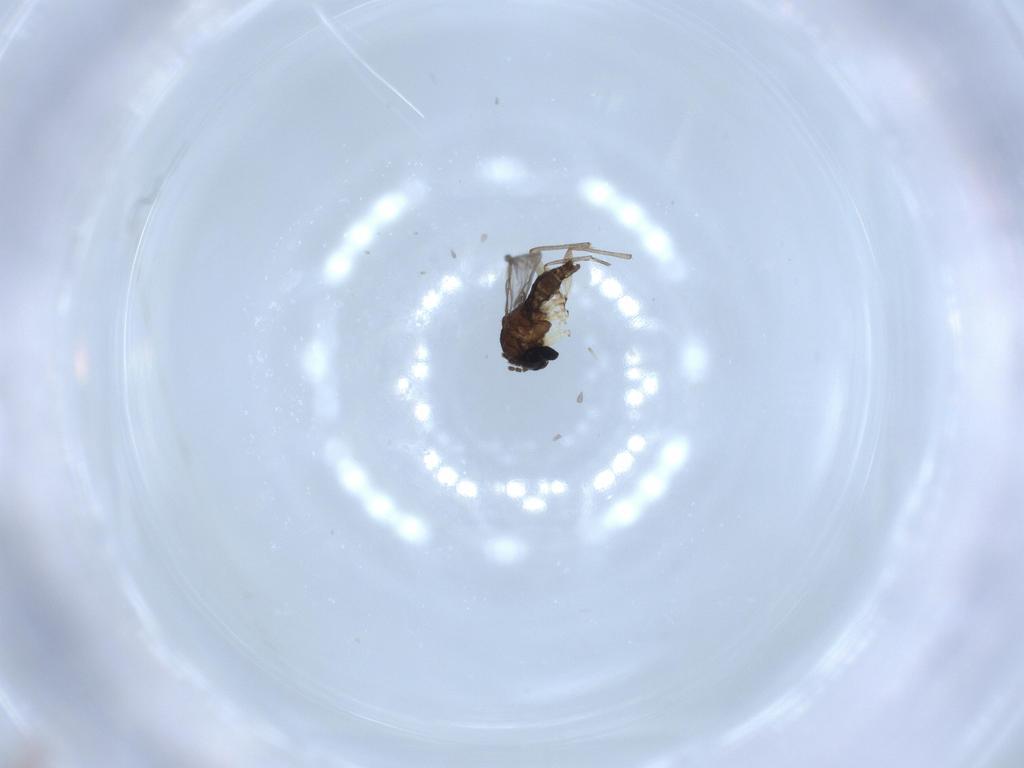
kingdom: Animalia
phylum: Arthropoda
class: Insecta
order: Diptera
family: Sciaridae
